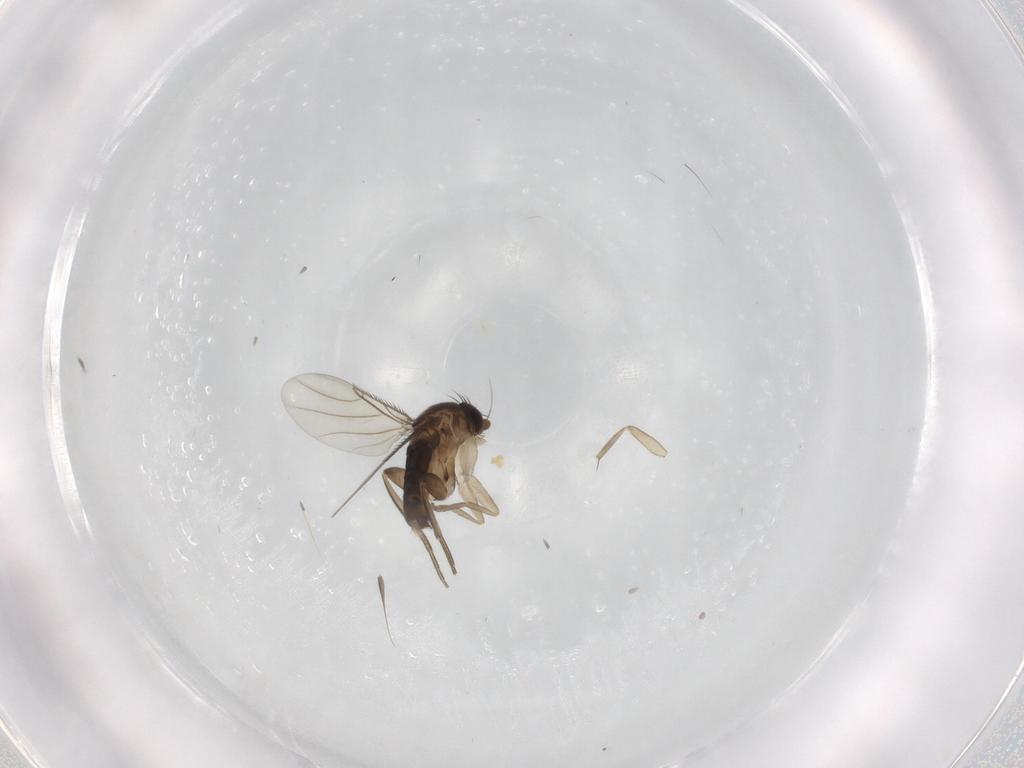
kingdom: Animalia
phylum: Arthropoda
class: Insecta
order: Diptera
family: Phoridae
